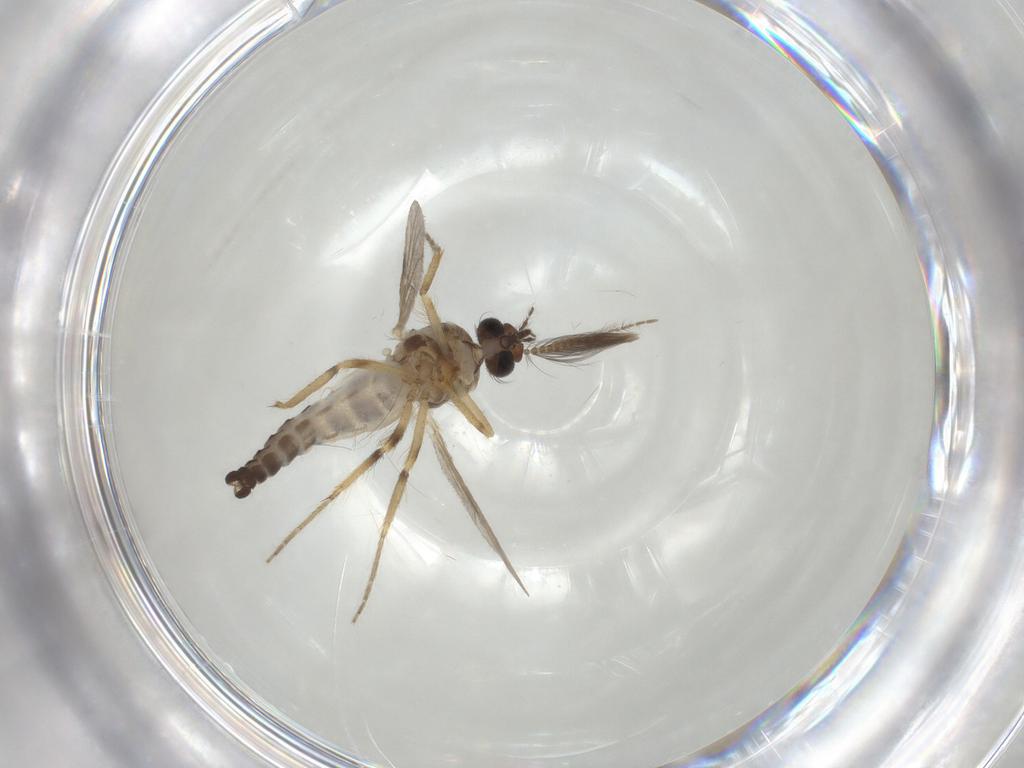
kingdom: Animalia
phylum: Arthropoda
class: Insecta
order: Diptera
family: Ceratopogonidae
